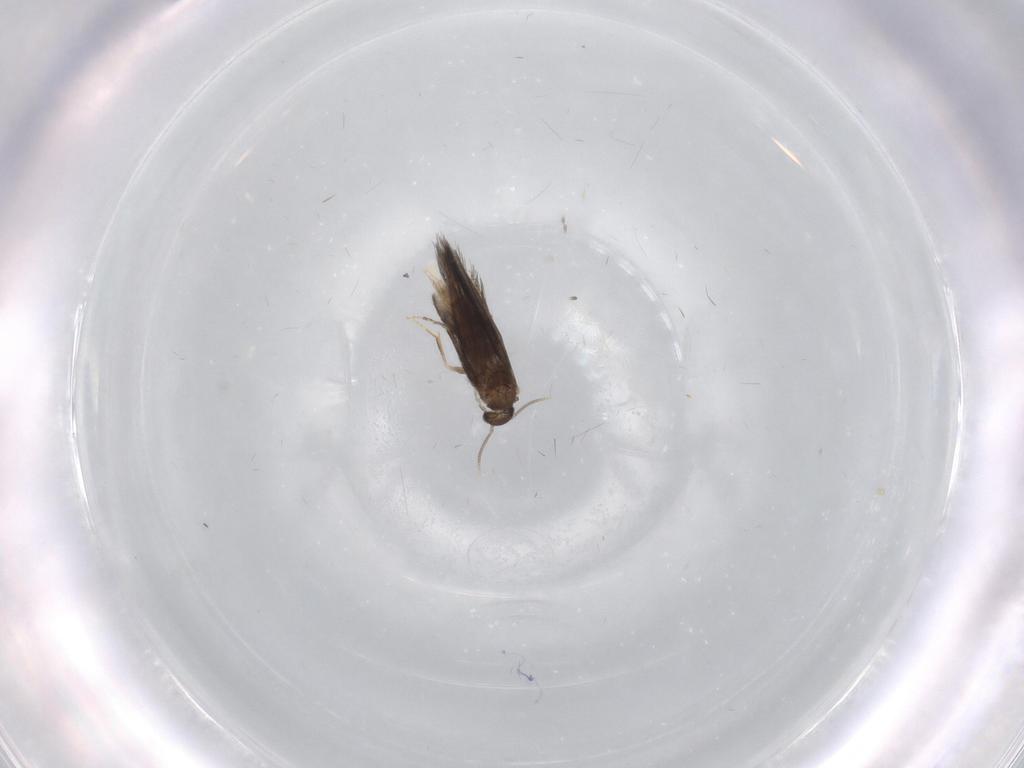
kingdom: Animalia
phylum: Arthropoda
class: Insecta
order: Trichoptera
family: Hydroptilidae
